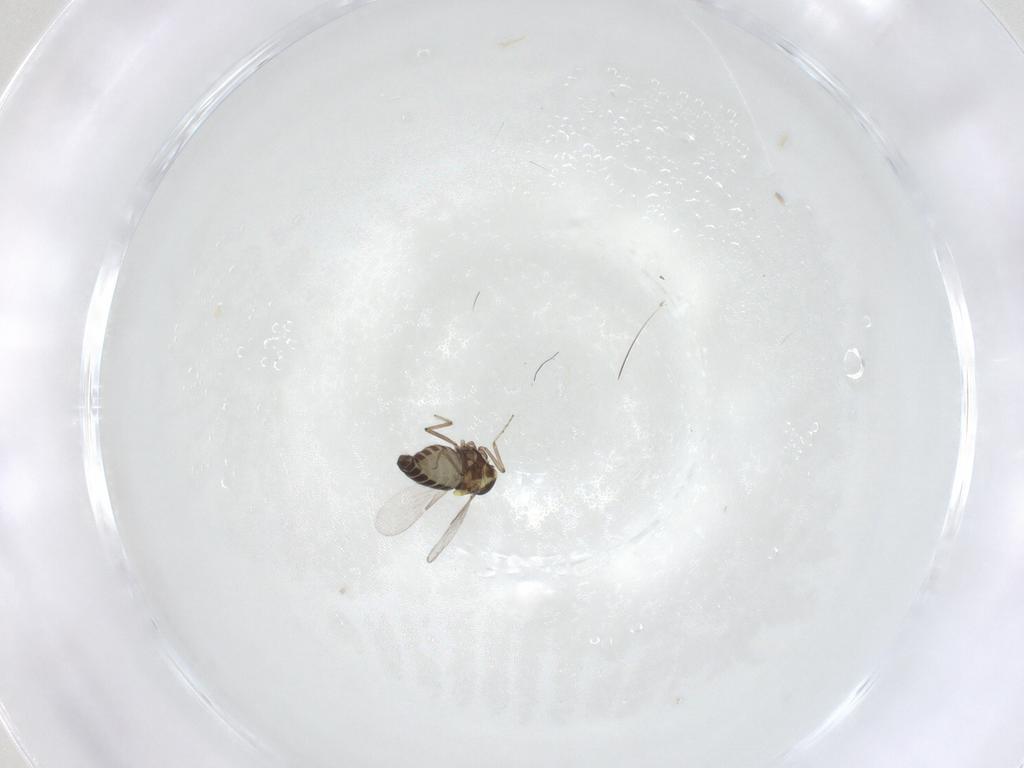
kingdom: Animalia
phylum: Arthropoda
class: Insecta
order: Diptera
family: Ceratopogonidae
